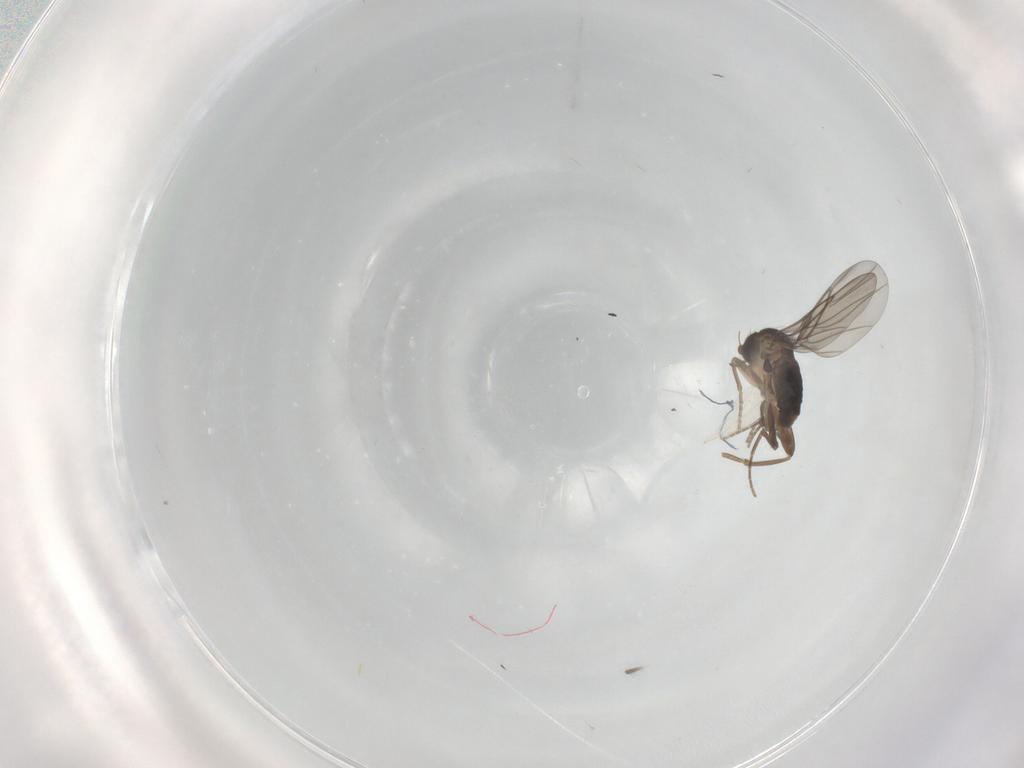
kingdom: Animalia
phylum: Arthropoda
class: Insecta
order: Diptera
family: Cecidomyiidae
